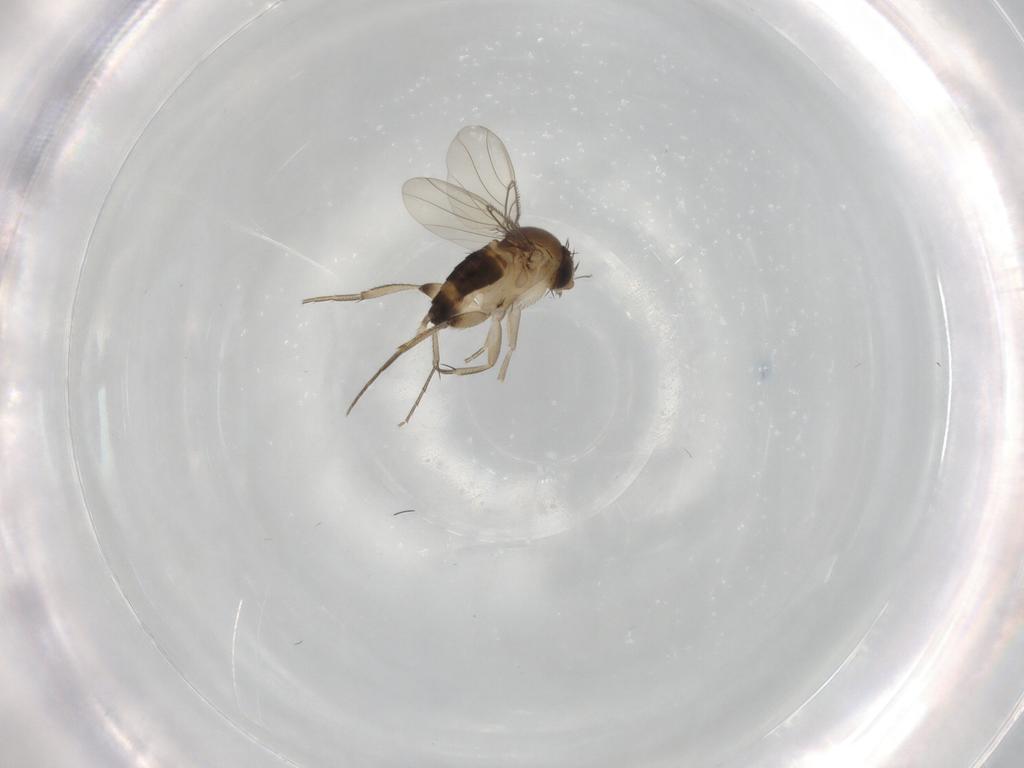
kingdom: Animalia
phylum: Arthropoda
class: Insecta
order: Diptera
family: Phoridae
